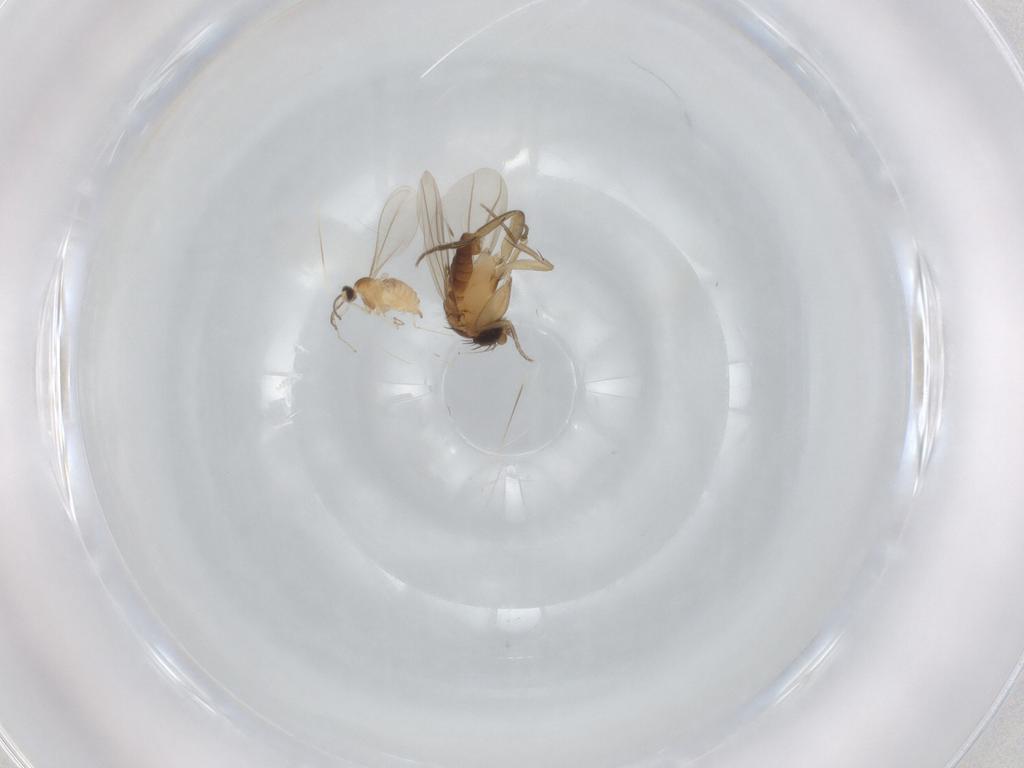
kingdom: Animalia
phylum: Arthropoda
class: Insecta
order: Diptera
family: Cecidomyiidae
